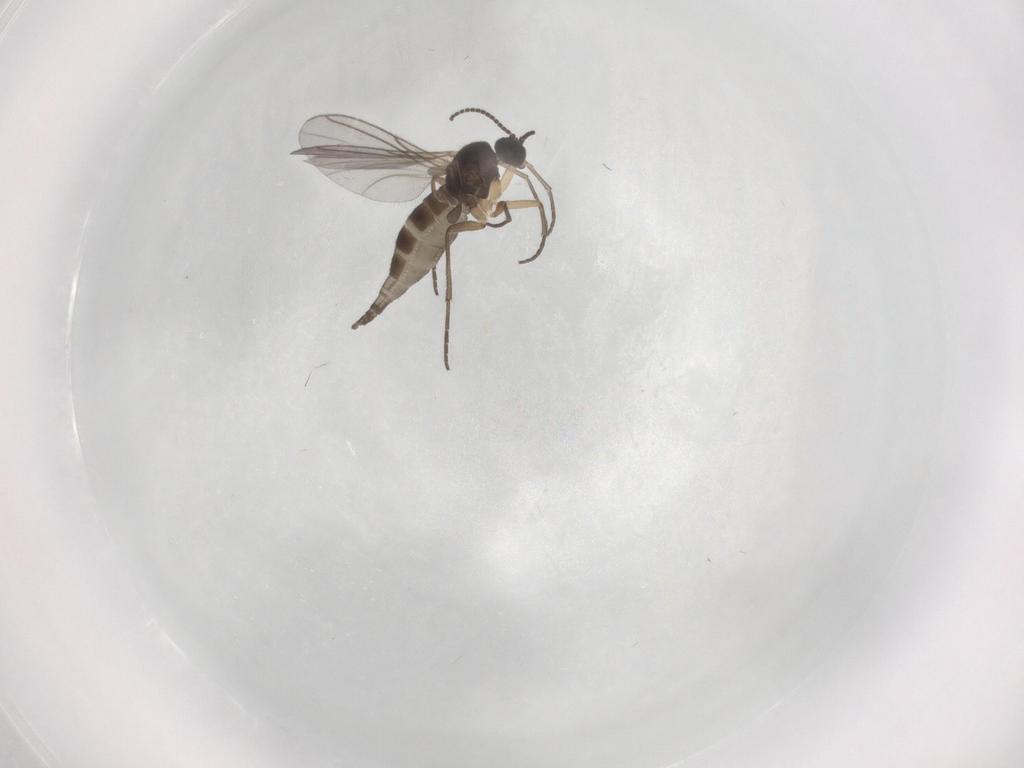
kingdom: Animalia
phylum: Arthropoda
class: Insecta
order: Diptera
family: Sciaridae
